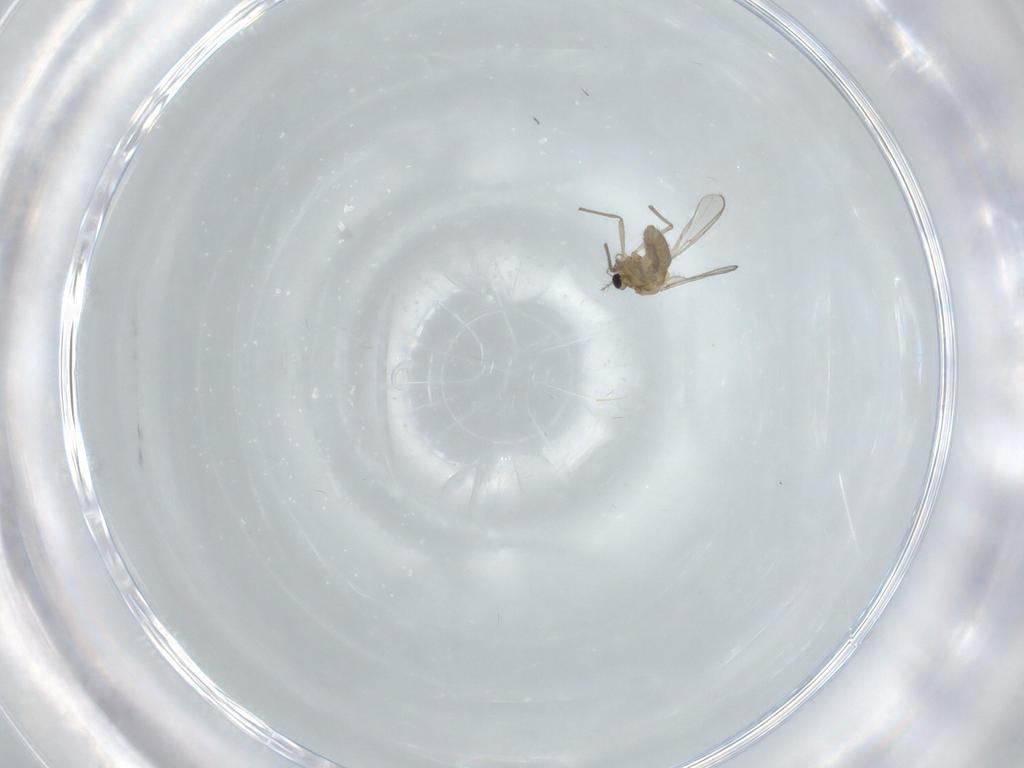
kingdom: Animalia
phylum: Arthropoda
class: Insecta
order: Diptera
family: Chironomidae
